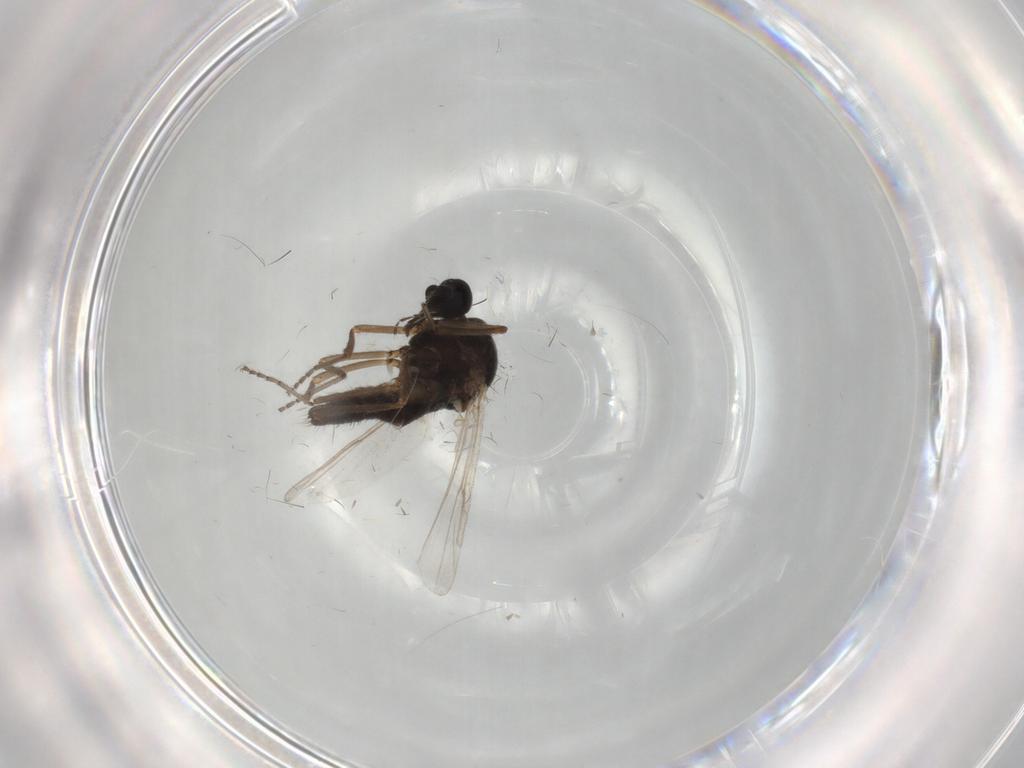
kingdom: Animalia
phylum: Arthropoda
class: Insecta
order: Diptera
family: Ceratopogonidae
